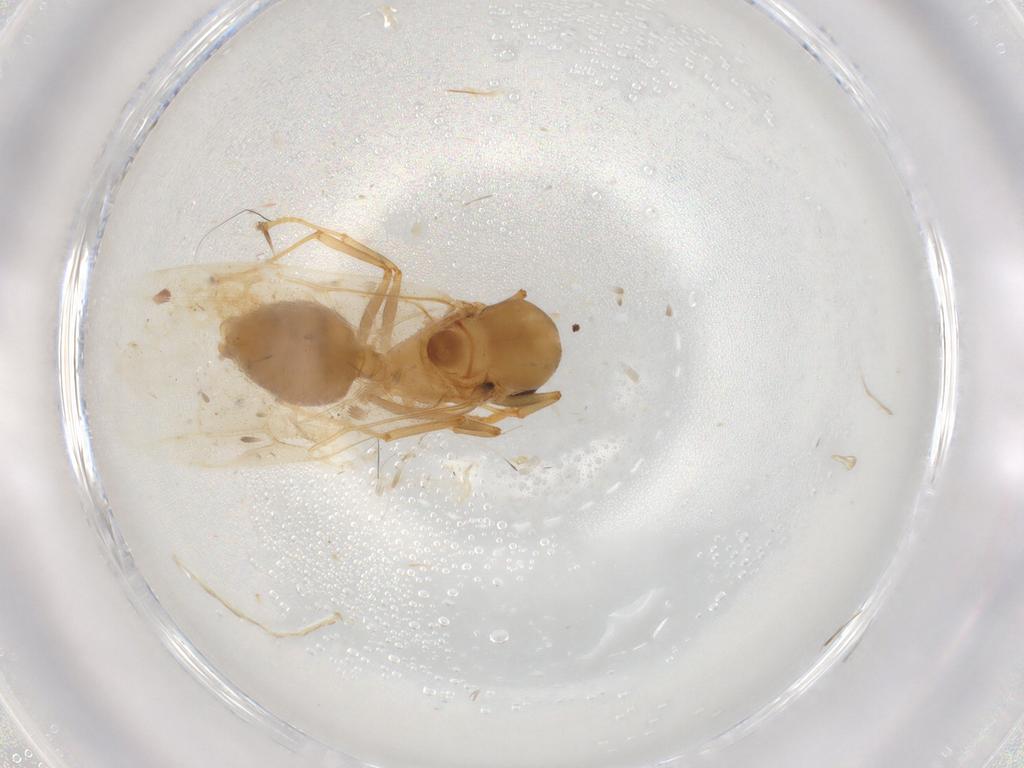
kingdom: Animalia
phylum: Arthropoda
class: Insecta
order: Hymenoptera
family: Formicidae
